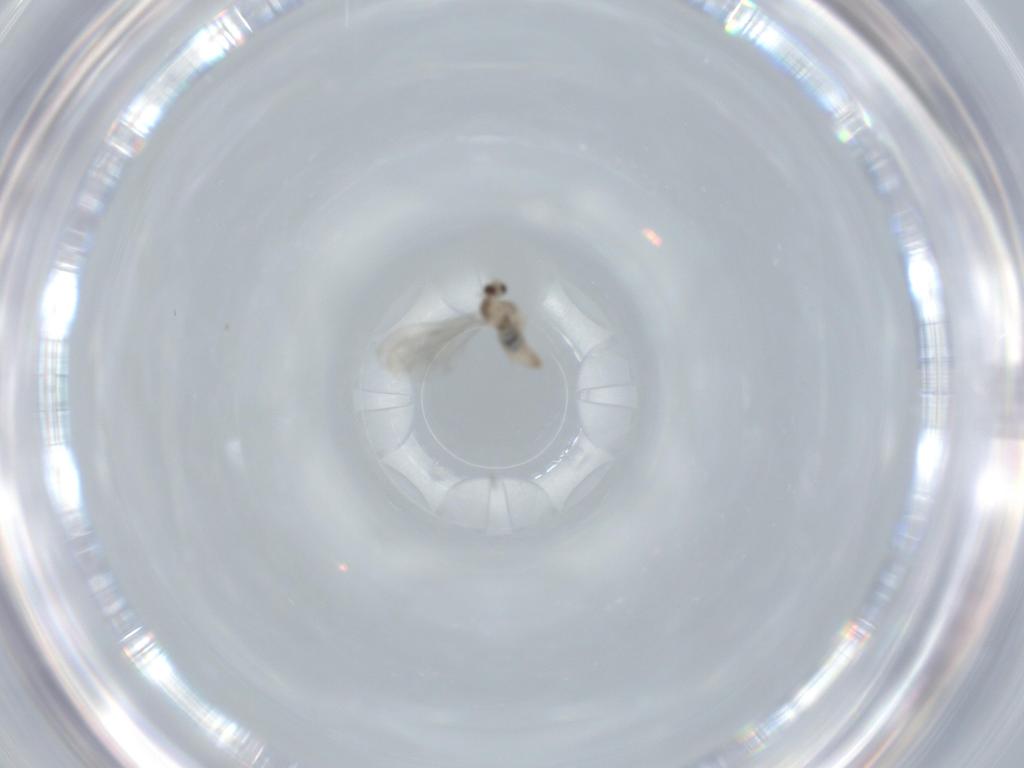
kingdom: Animalia
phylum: Arthropoda
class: Insecta
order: Diptera
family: Cecidomyiidae
